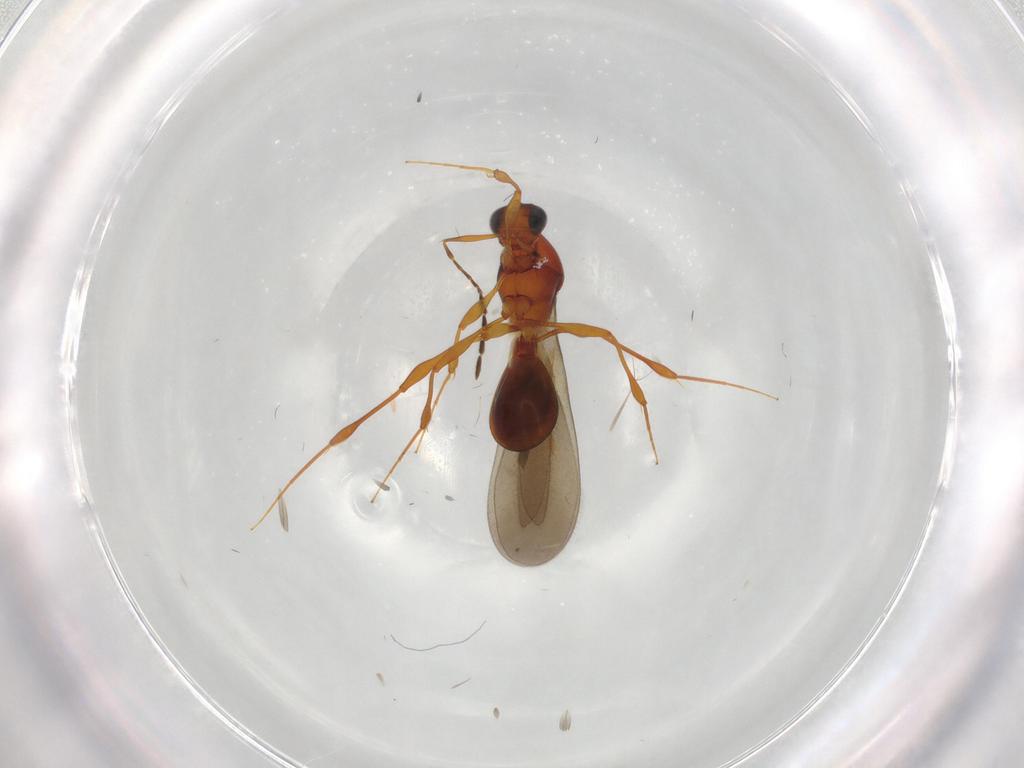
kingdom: Animalia
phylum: Arthropoda
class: Insecta
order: Hymenoptera
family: Platygastridae
